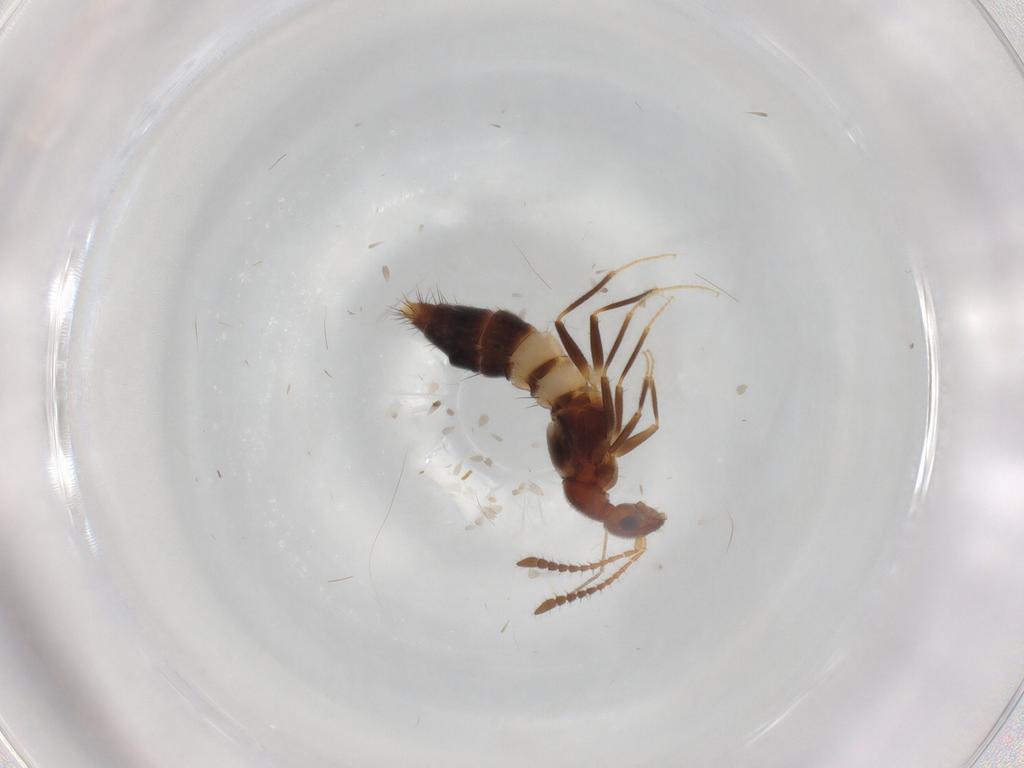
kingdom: Animalia
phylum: Arthropoda
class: Insecta
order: Coleoptera
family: Staphylinidae
